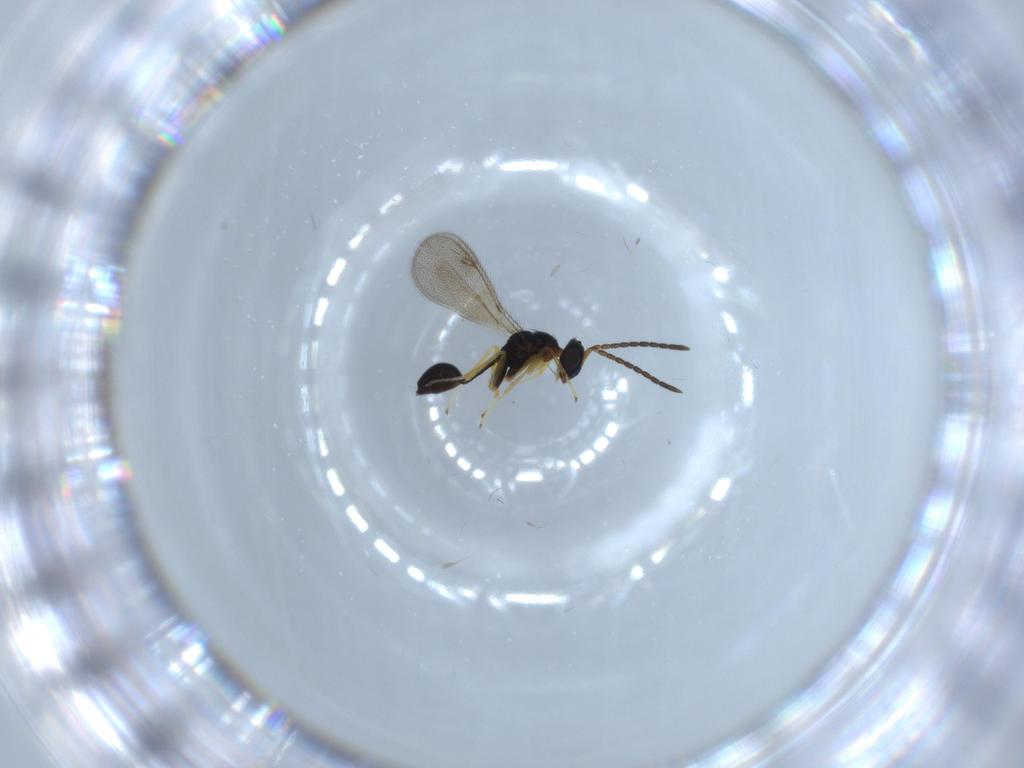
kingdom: Animalia
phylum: Arthropoda
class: Insecta
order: Hymenoptera
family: Diparidae
